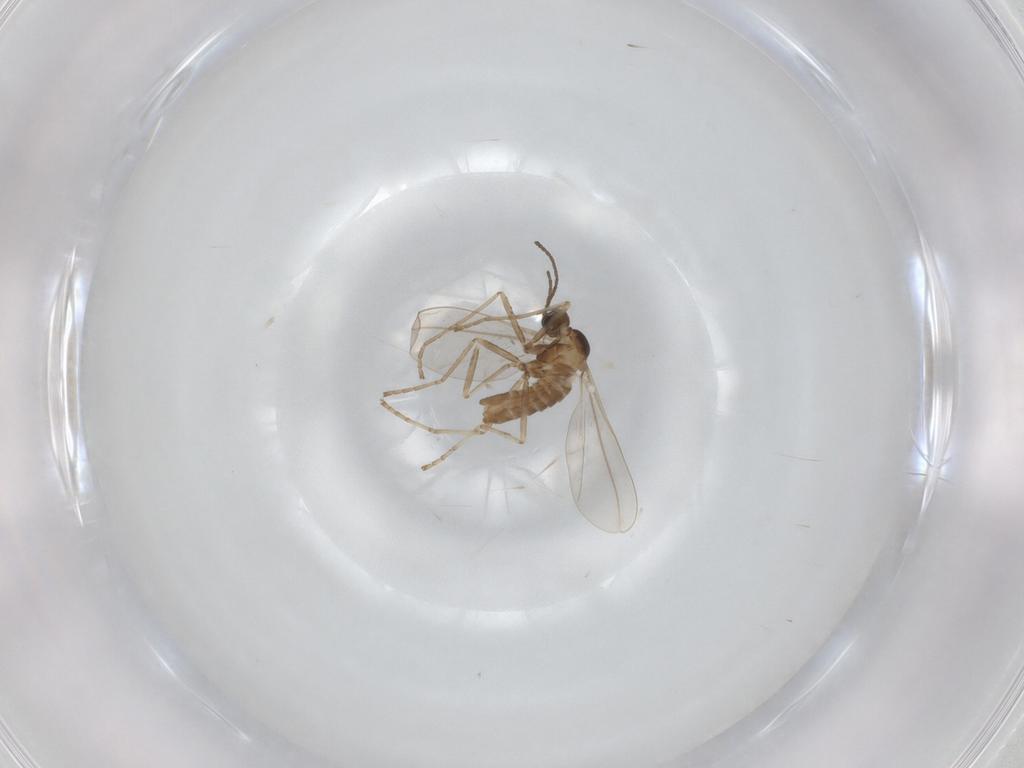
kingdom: Animalia
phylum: Arthropoda
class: Insecta
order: Diptera
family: Cecidomyiidae
